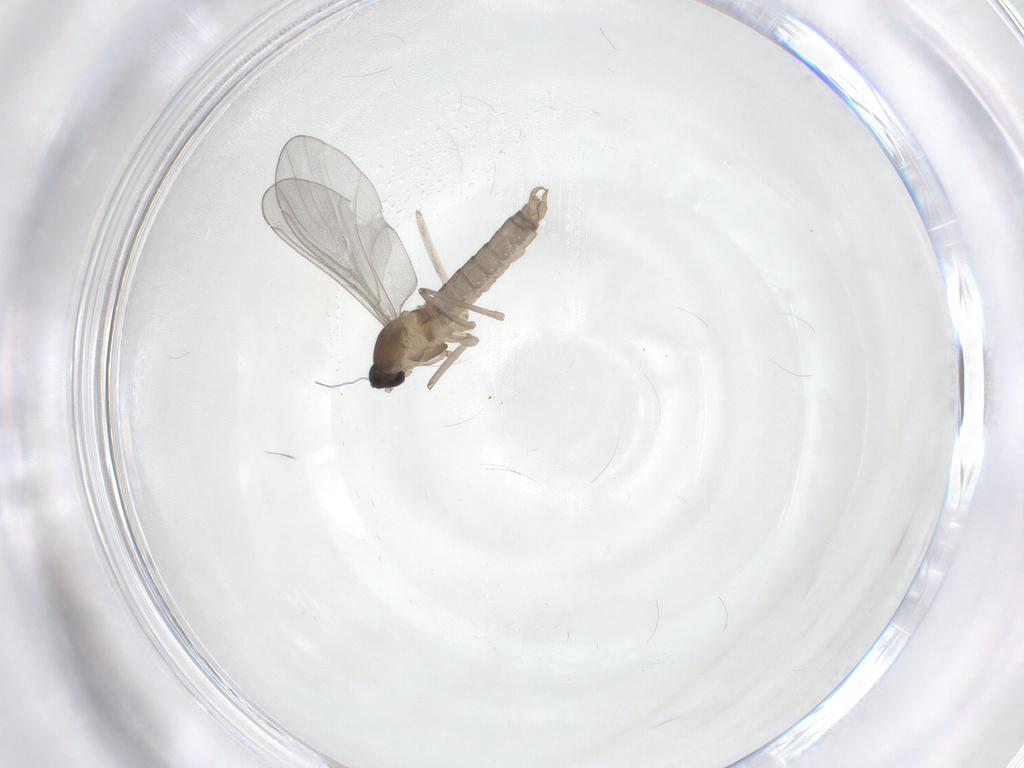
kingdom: Animalia
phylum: Arthropoda
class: Insecta
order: Diptera
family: Cecidomyiidae
